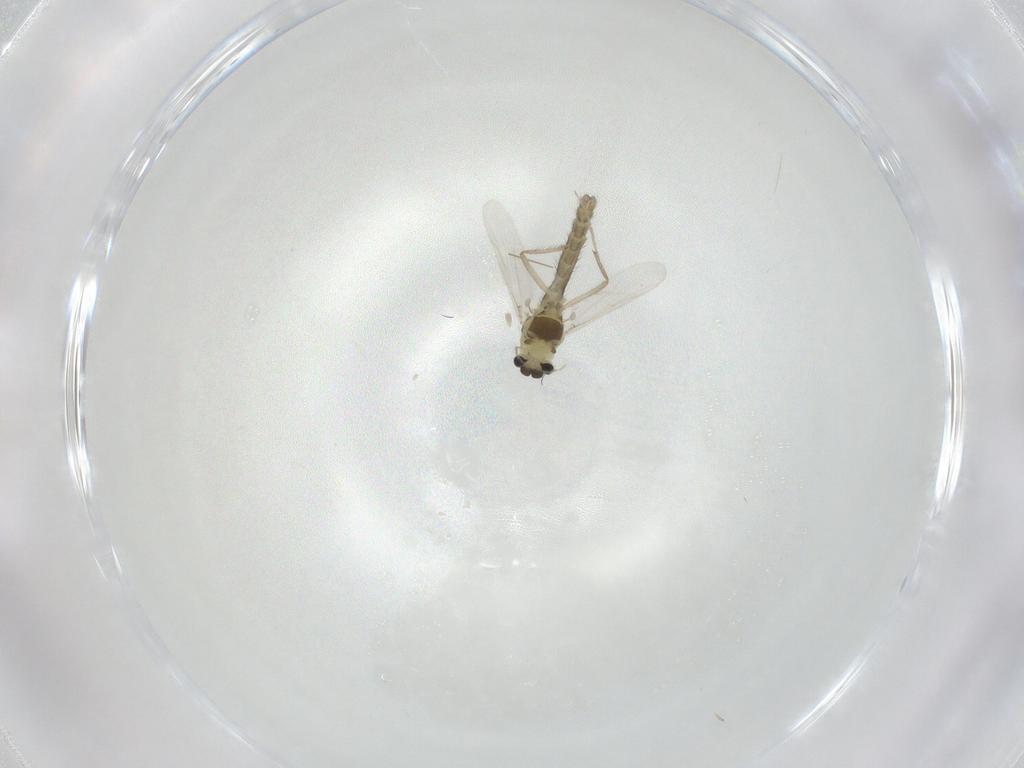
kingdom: Animalia
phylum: Arthropoda
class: Insecta
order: Diptera
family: Chironomidae
